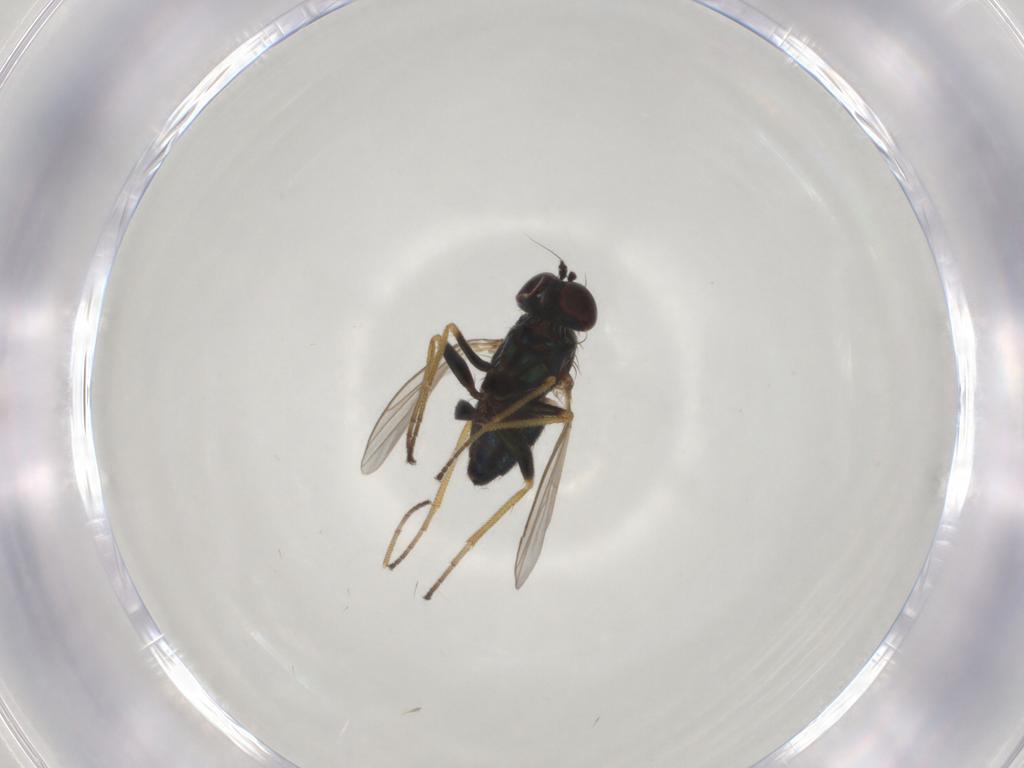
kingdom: Animalia
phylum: Arthropoda
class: Insecta
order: Diptera
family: Dolichopodidae
